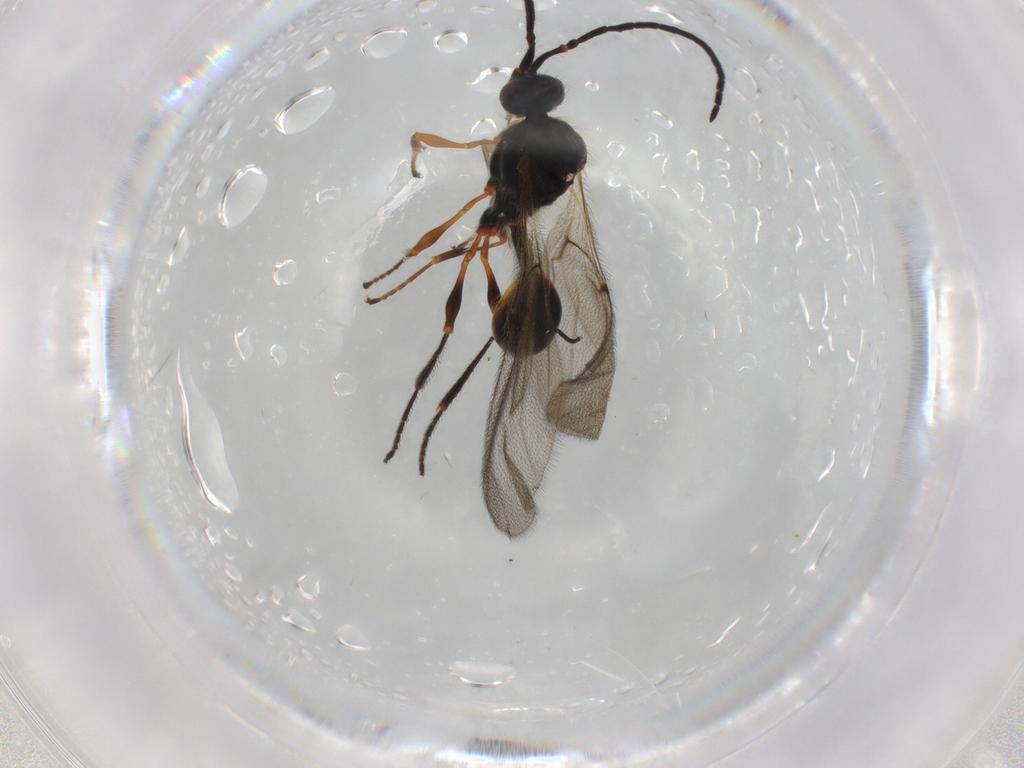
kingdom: Animalia
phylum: Arthropoda
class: Insecta
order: Hymenoptera
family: Diapriidae
